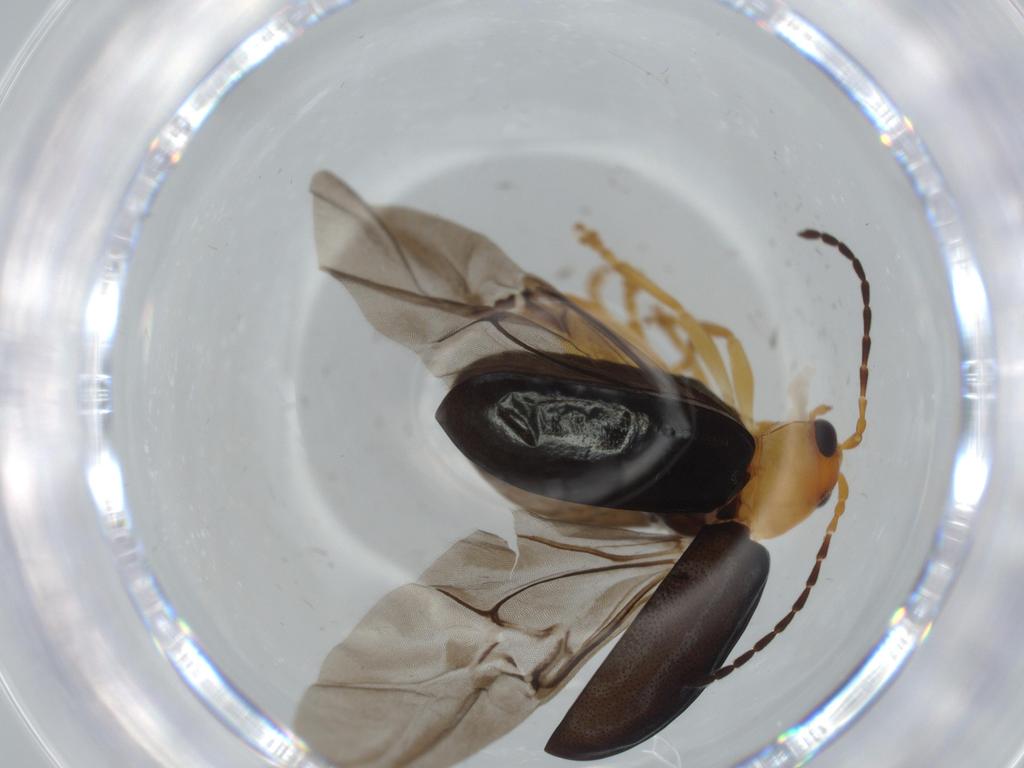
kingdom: Animalia
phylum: Arthropoda
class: Insecta
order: Coleoptera
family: Chrysomelidae
